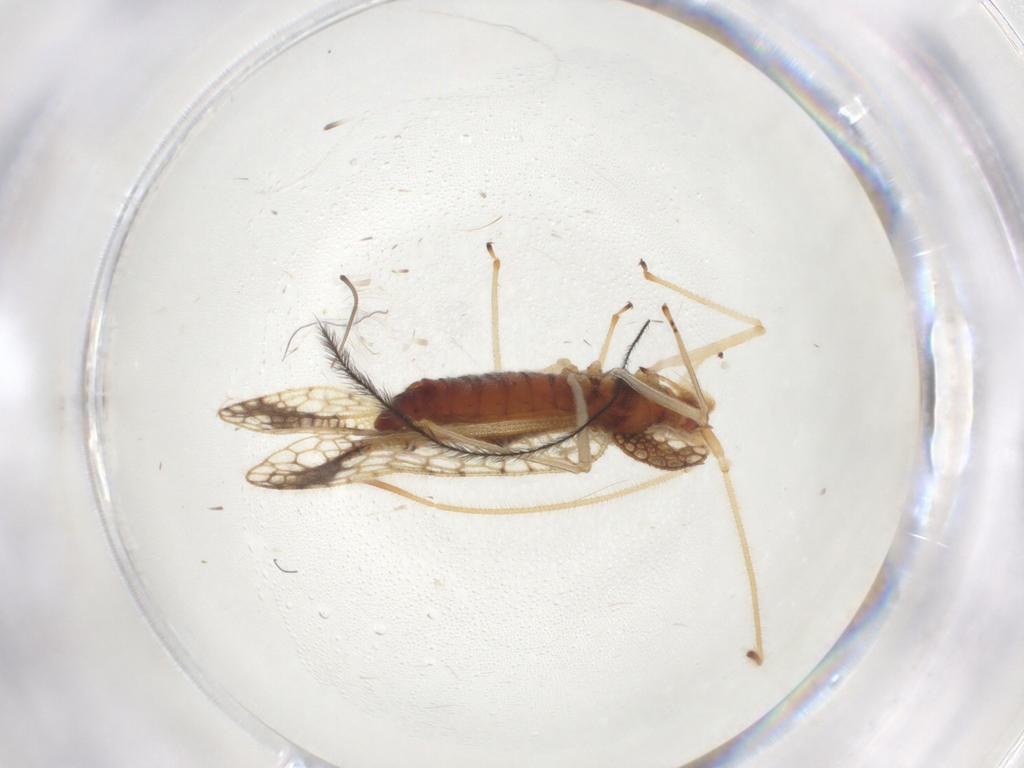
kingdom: Animalia
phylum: Arthropoda
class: Insecta
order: Hemiptera
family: Tingidae
